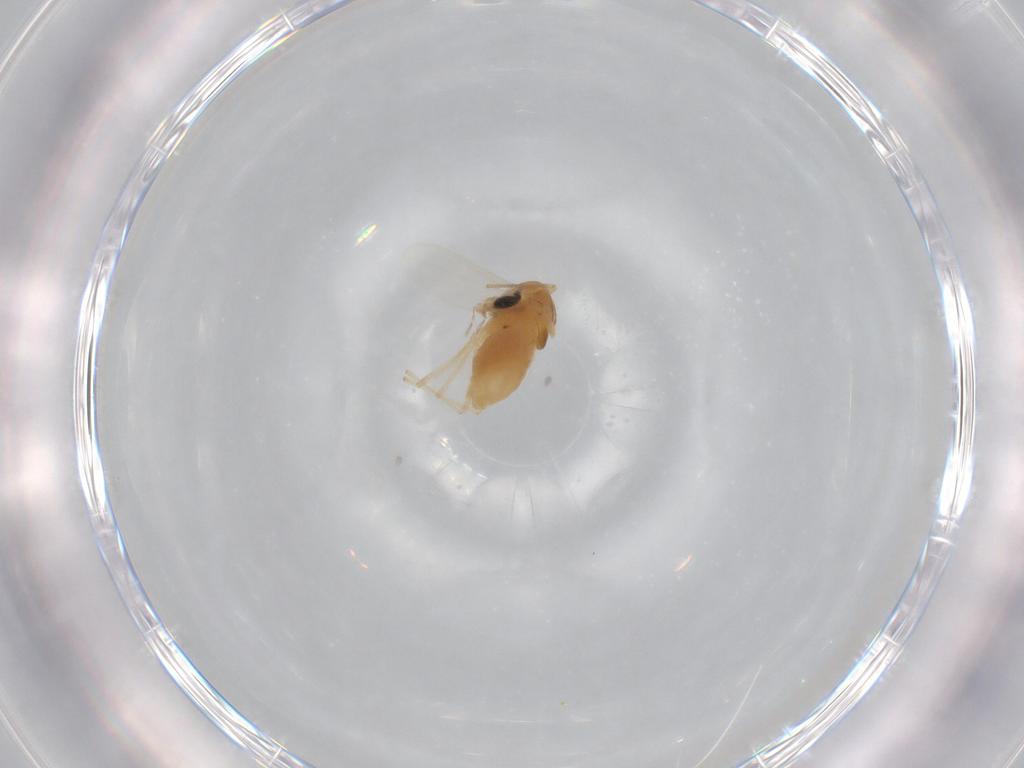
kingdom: Animalia
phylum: Arthropoda
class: Insecta
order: Diptera
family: Chironomidae
